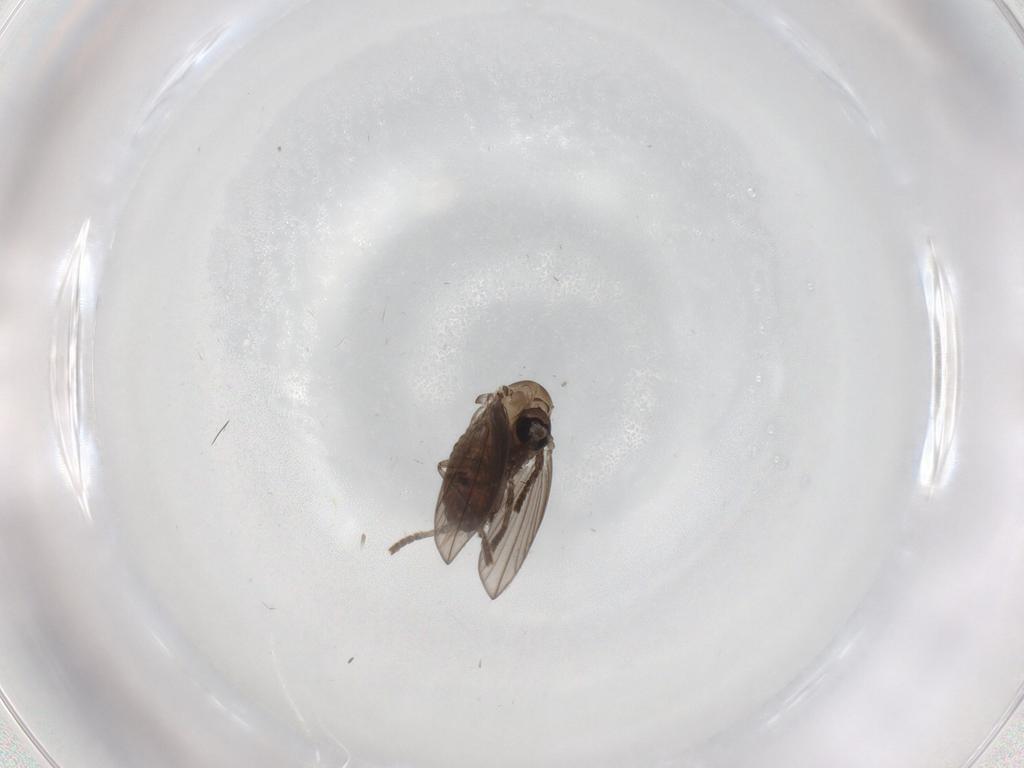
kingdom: Animalia
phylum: Arthropoda
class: Insecta
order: Diptera
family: Psychodidae
